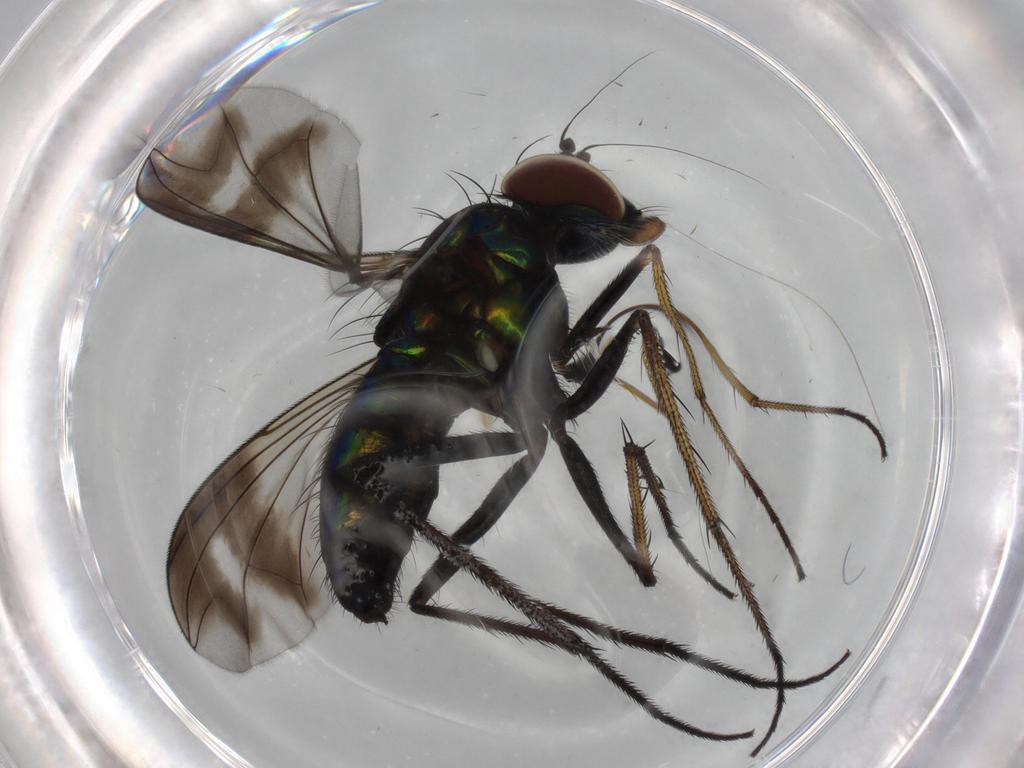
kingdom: Animalia
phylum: Arthropoda
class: Insecta
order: Diptera
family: Dolichopodidae
